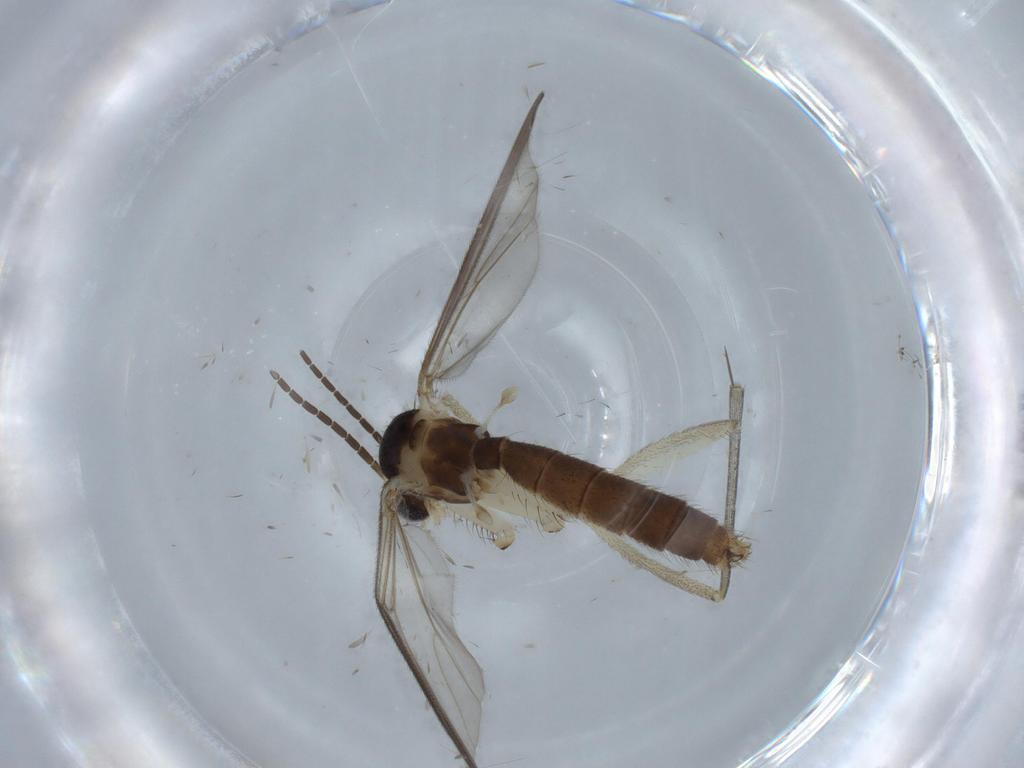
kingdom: Animalia
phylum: Arthropoda
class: Insecta
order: Diptera
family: Cecidomyiidae
